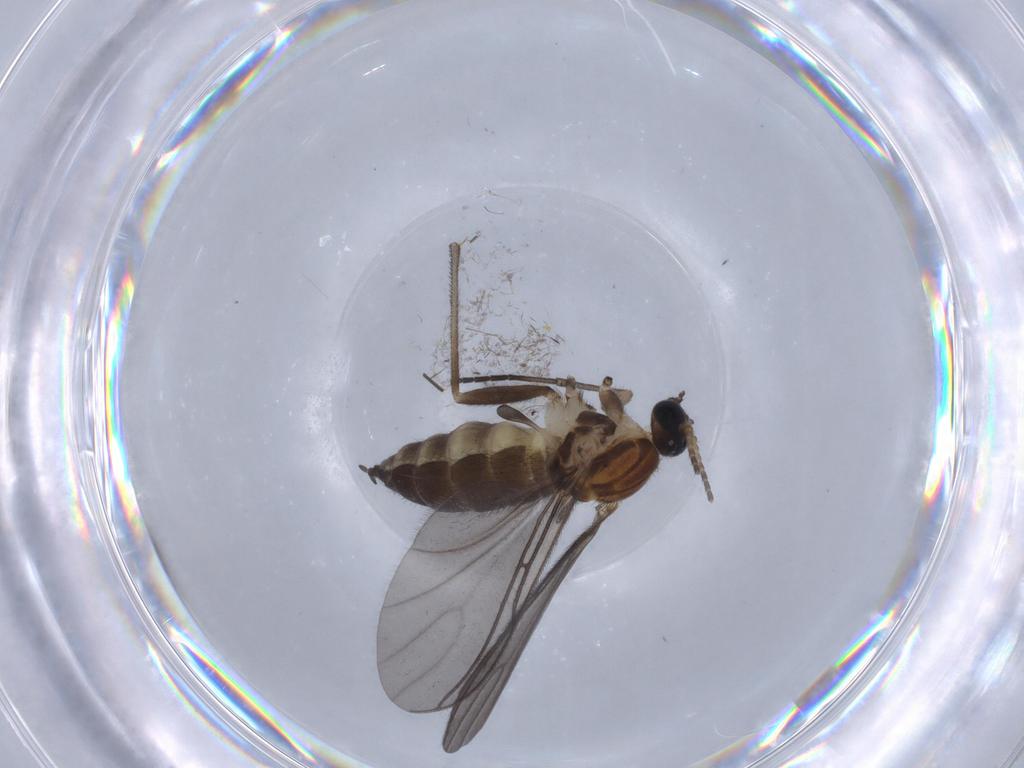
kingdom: Animalia
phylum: Arthropoda
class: Insecta
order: Diptera
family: Sciaridae
